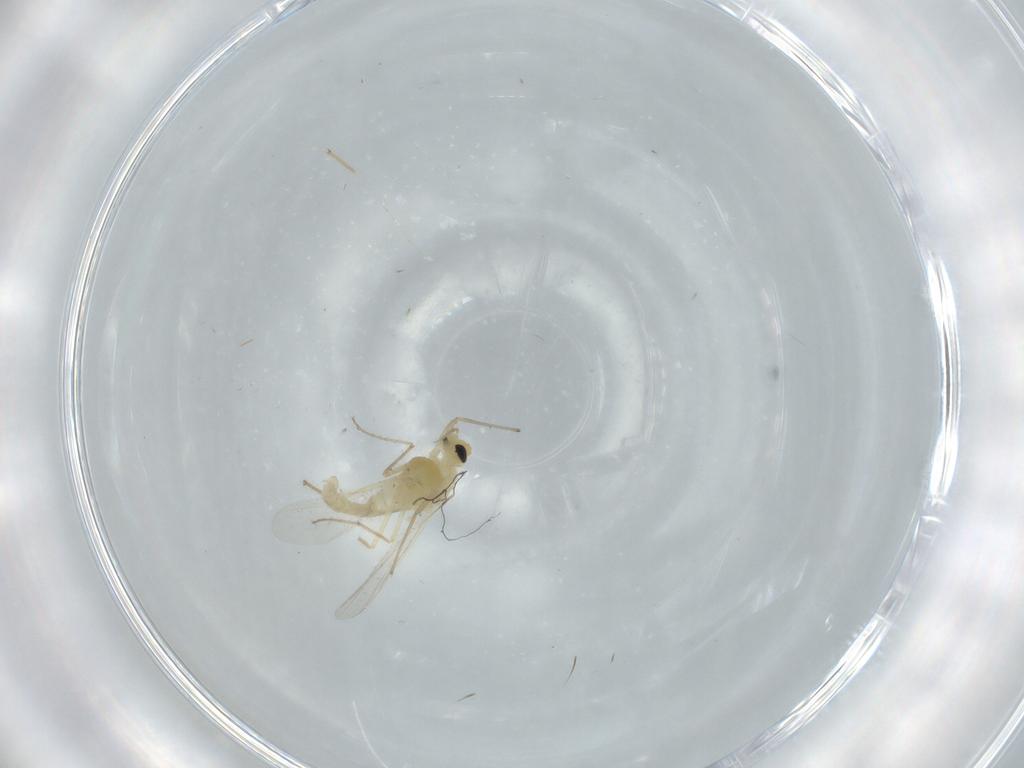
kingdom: Animalia
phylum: Arthropoda
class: Insecta
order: Diptera
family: Chironomidae
